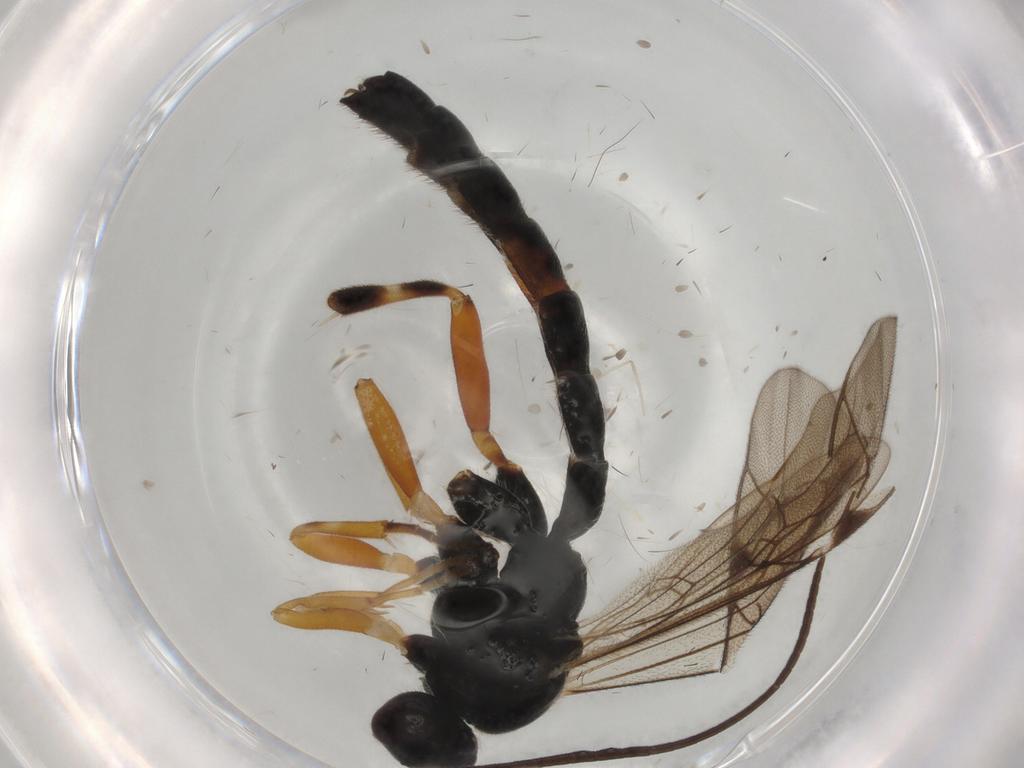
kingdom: Animalia
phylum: Arthropoda
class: Insecta
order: Hymenoptera
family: Ichneumonidae
